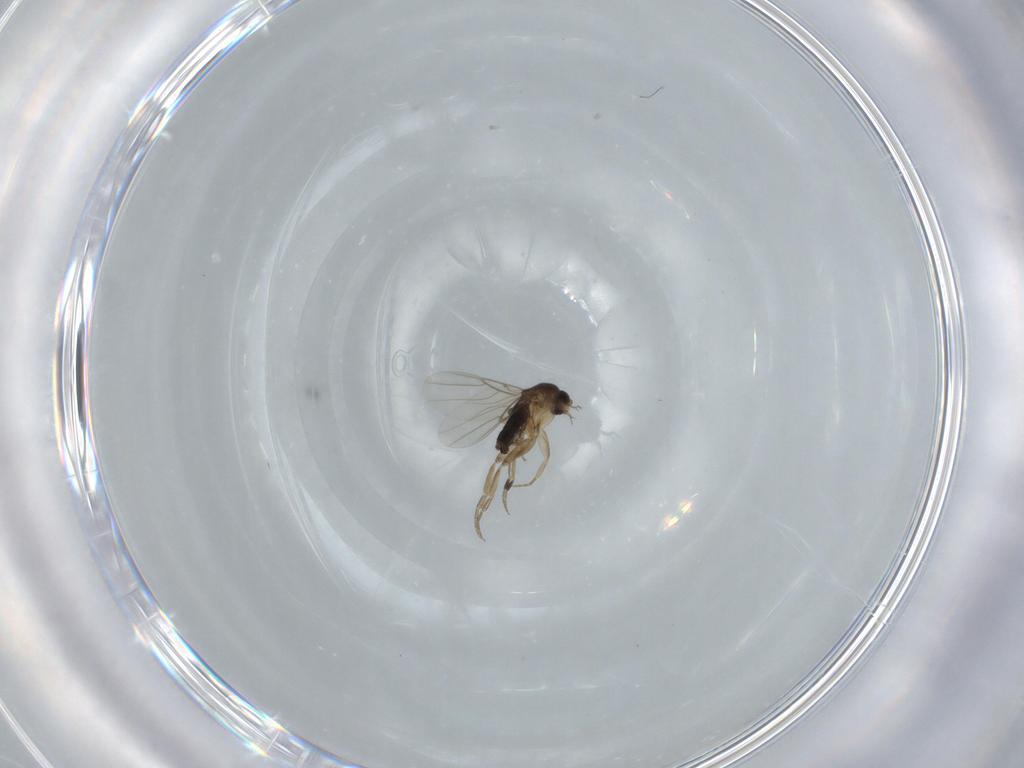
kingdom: Animalia
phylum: Arthropoda
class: Insecta
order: Diptera
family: Phoridae
